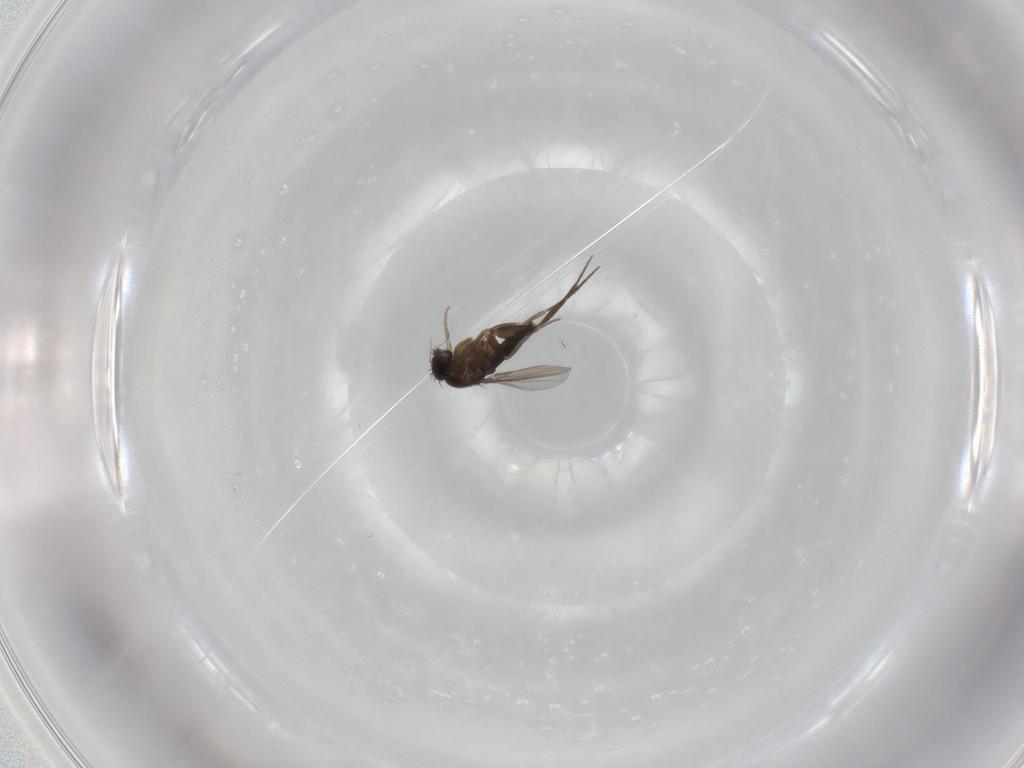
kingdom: Animalia
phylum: Arthropoda
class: Insecta
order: Diptera
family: Phoridae
